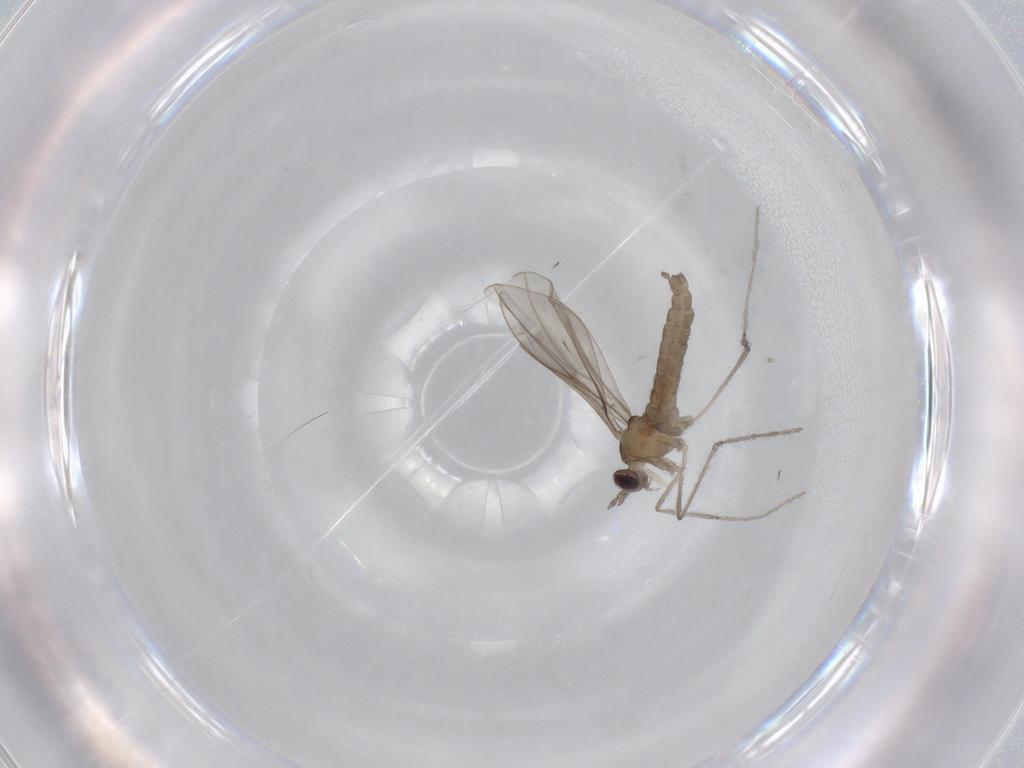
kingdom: Animalia
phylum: Arthropoda
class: Insecta
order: Diptera
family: Cecidomyiidae
